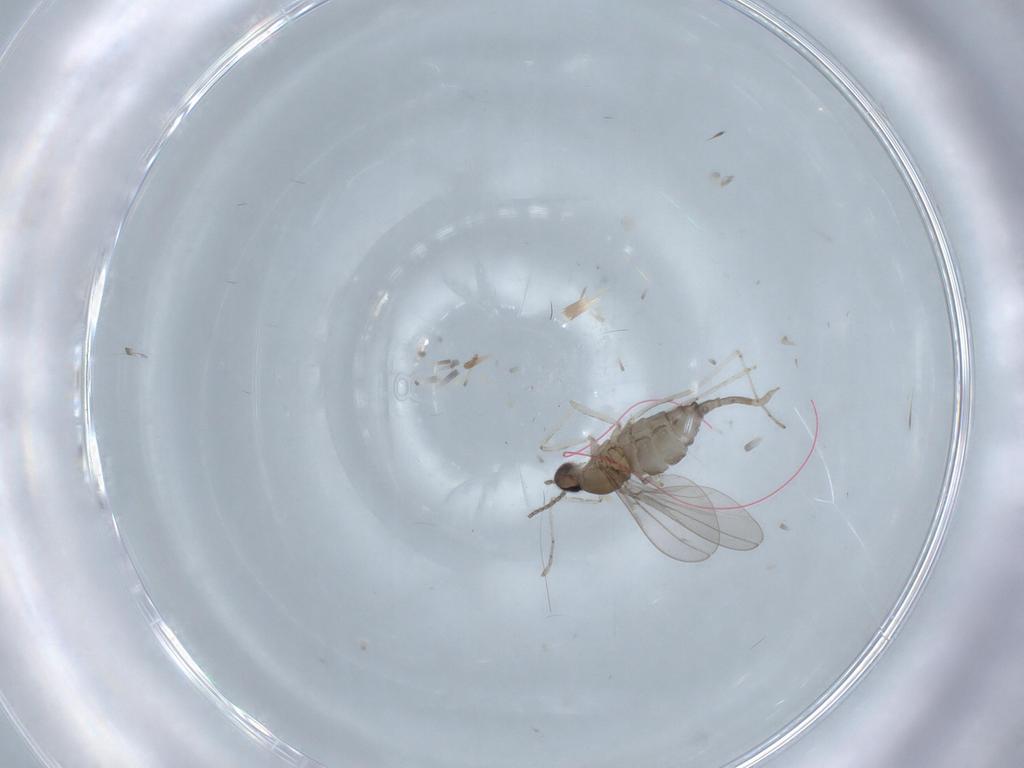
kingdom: Animalia
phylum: Arthropoda
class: Insecta
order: Diptera
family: Cecidomyiidae
